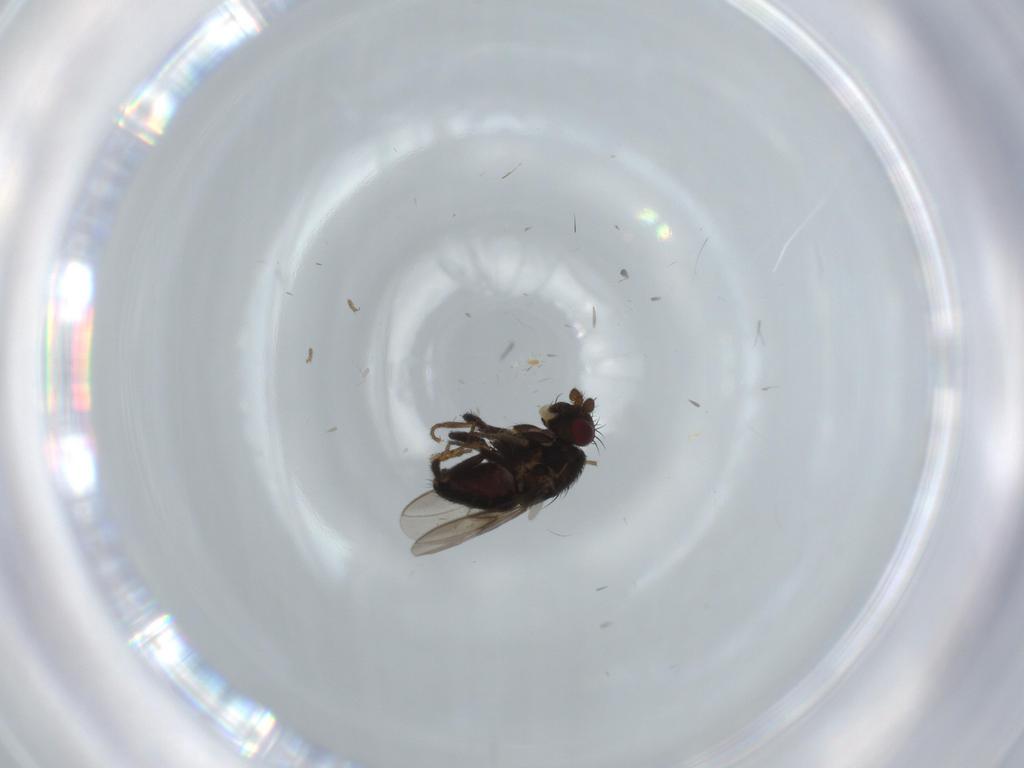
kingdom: Animalia
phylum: Arthropoda
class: Insecta
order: Diptera
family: Sphaeroceridae
